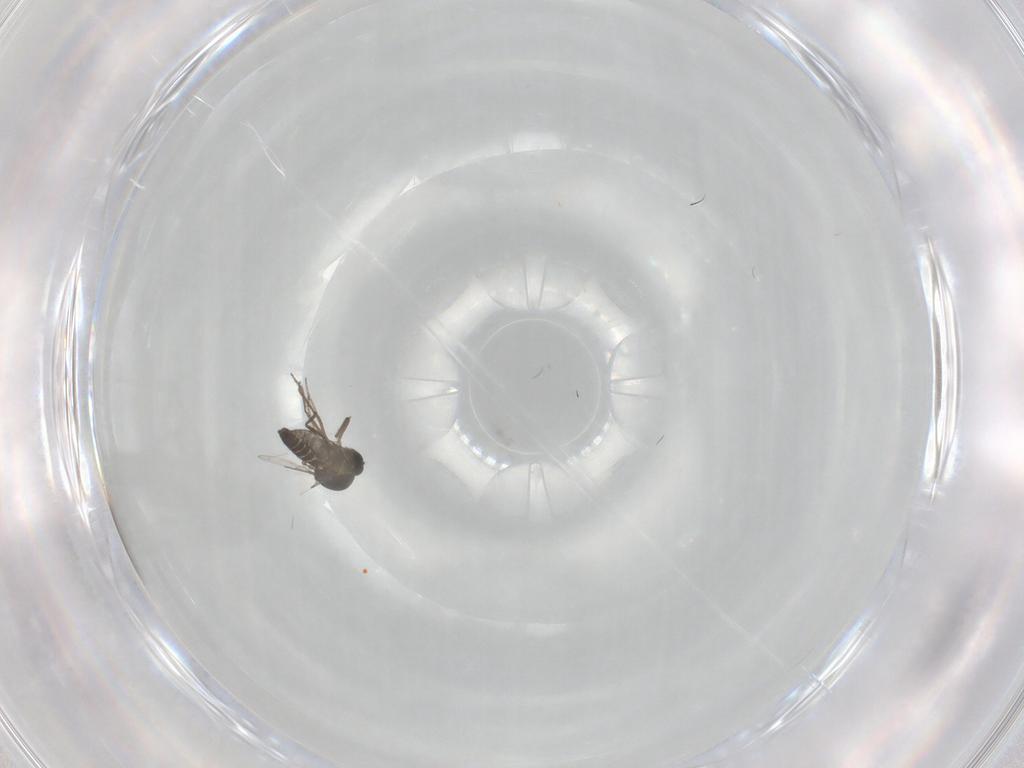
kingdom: Animalia
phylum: Arthropoda
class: Insecta
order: Diptera
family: Ceratopogonidae
